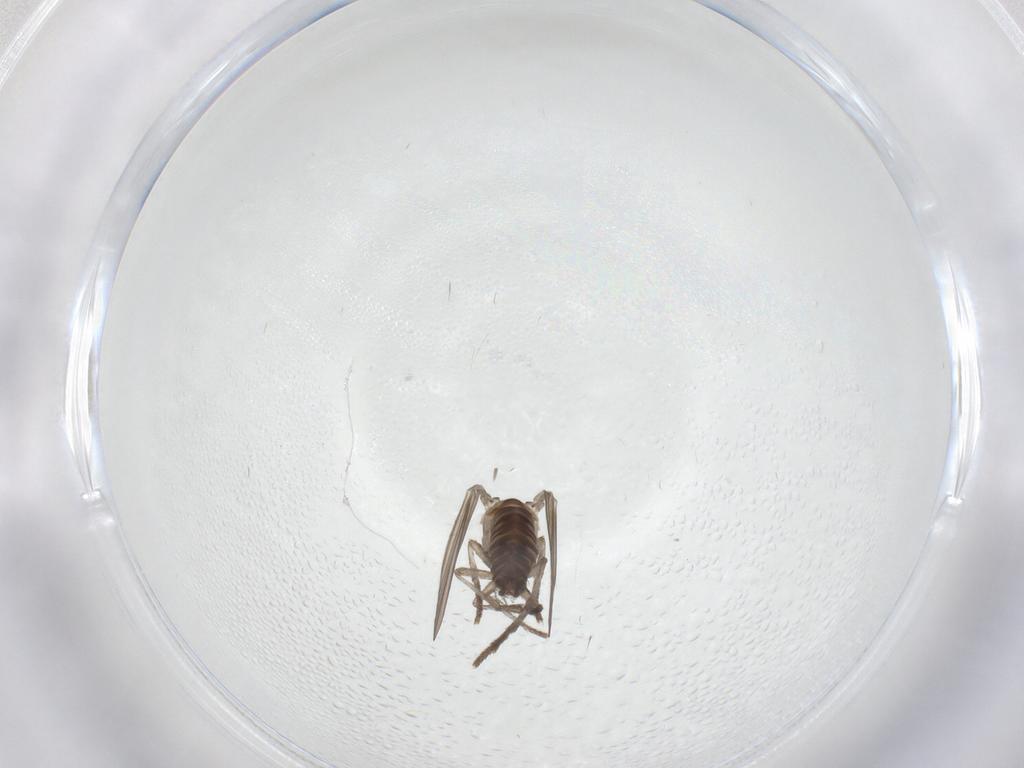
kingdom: Animalia
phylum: Arthropoda
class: Insecta
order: Diptera
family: Psychodidae
